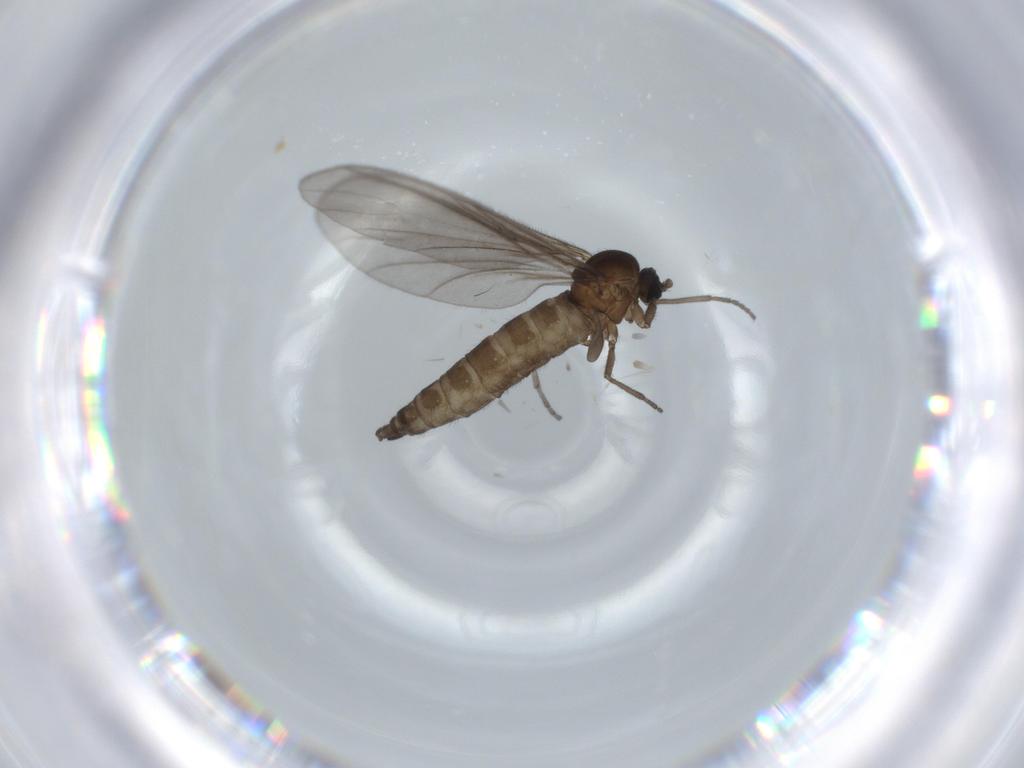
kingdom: Animalia
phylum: Arthropoda
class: Insecta
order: Diptera
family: Sciaridae
